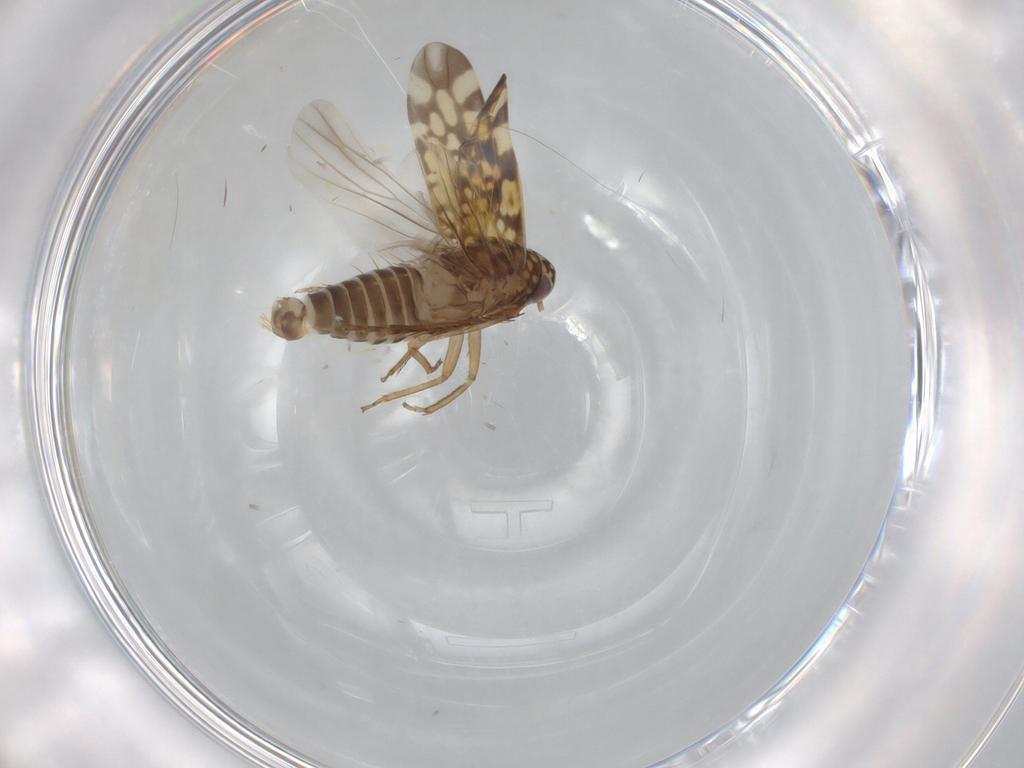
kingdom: Animalia
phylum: Arthropoda
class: Insecta
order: Hemiptera
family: Cicadellidae
